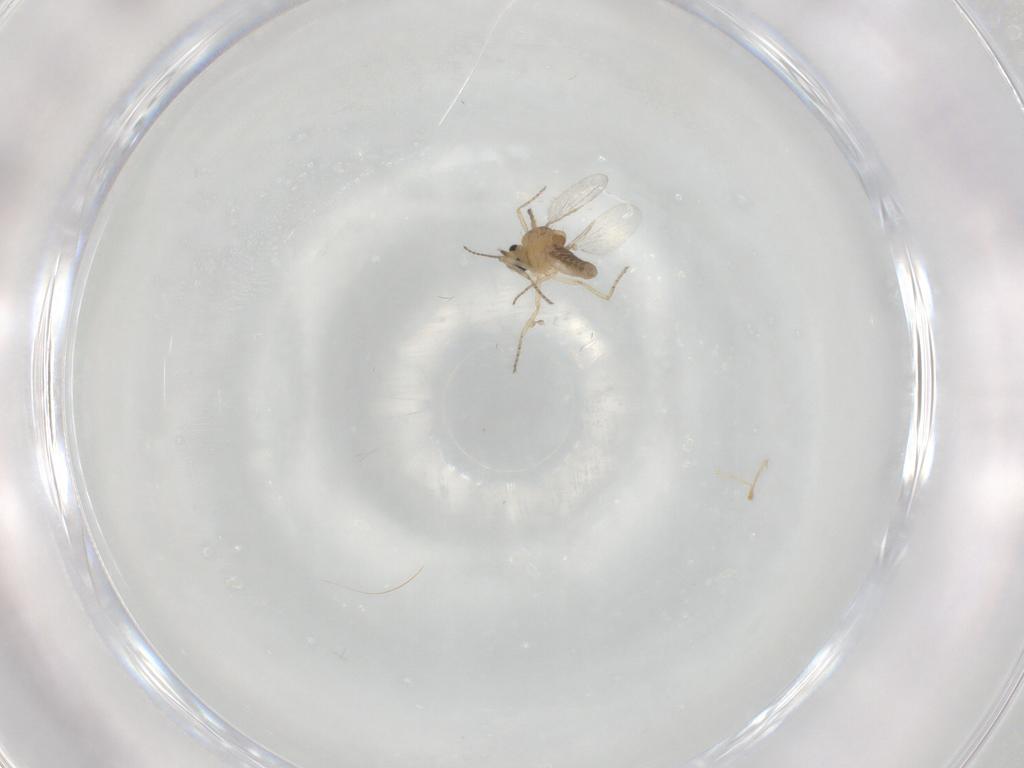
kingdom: Animalia
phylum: Arthropoda
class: Insecta
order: Diptera
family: Ceratopogonidae
